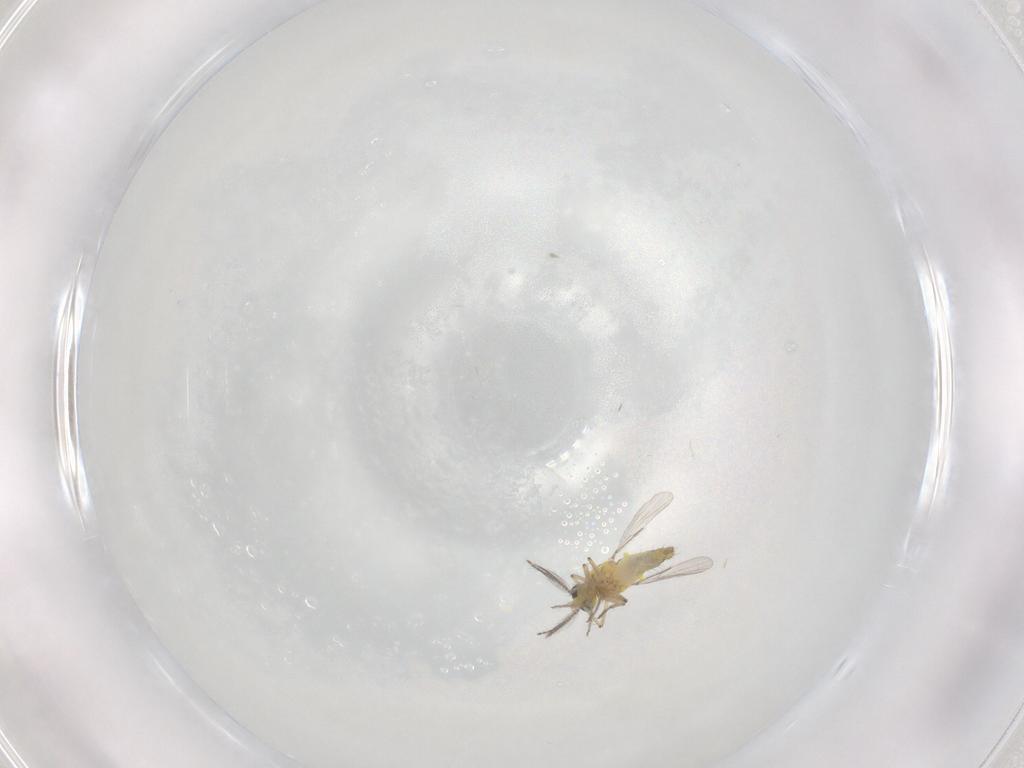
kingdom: Animalia
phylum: Arthropoda
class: Insecta
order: Diptera
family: Ceratopogonidae
